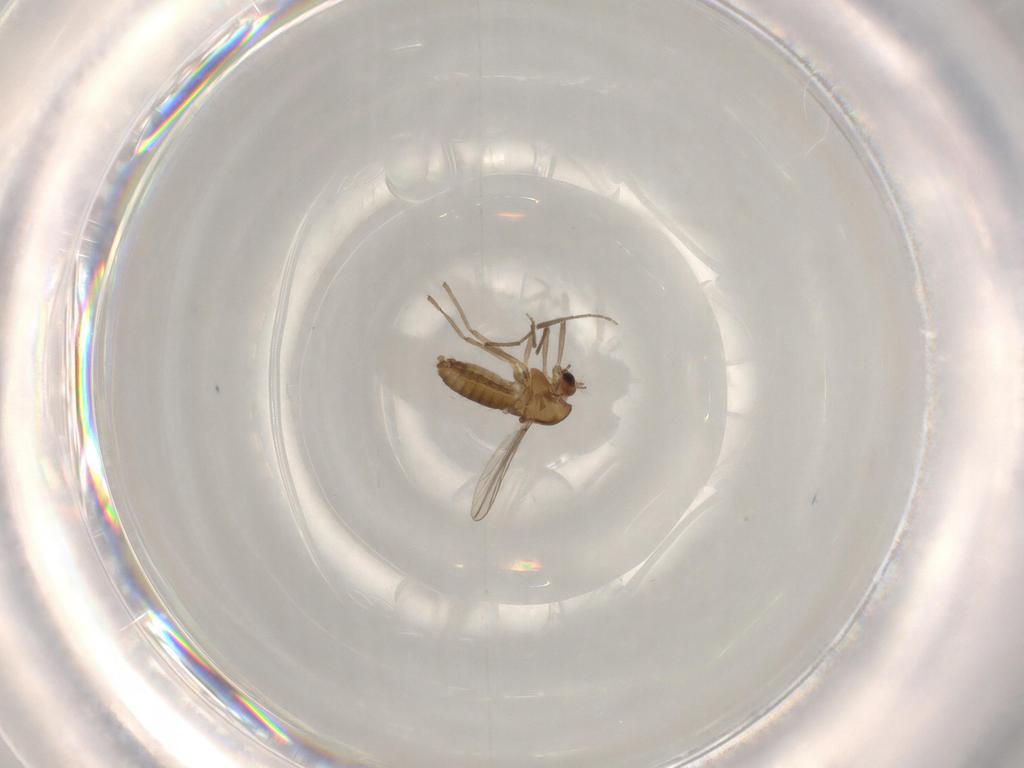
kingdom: Animalia
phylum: Arthropoda
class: Insecta
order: Diptera
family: Chironomidae
